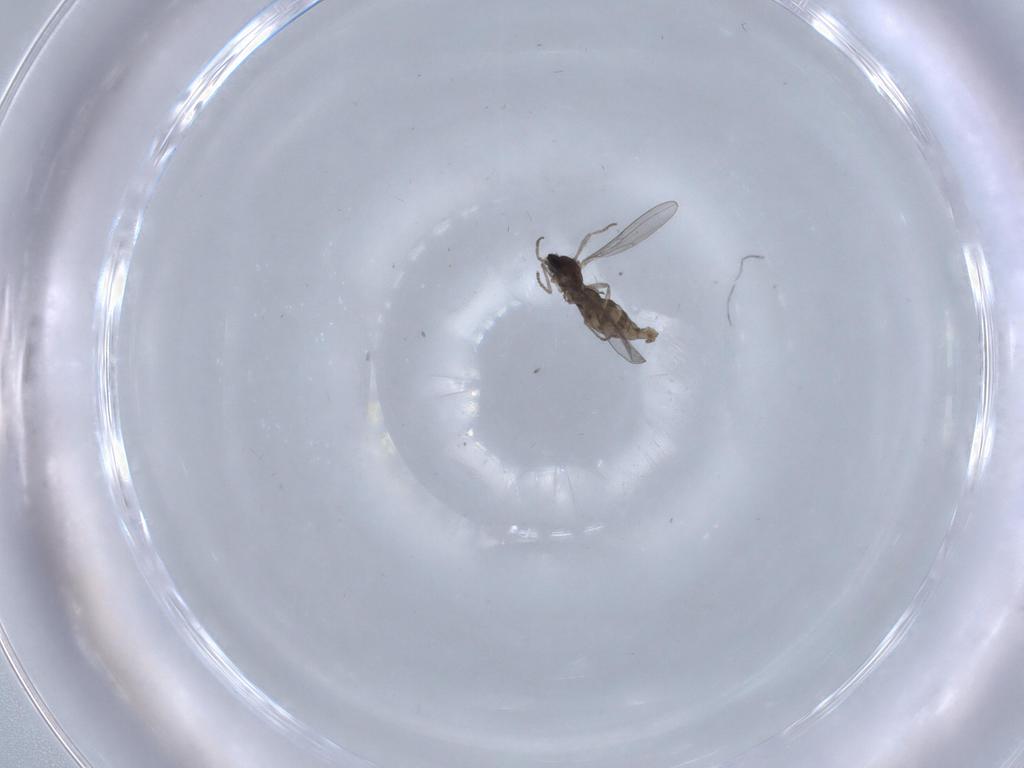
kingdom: Animalia
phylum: Arthropoda
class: Insecta
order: Diptera
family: Cecidomyiidae
